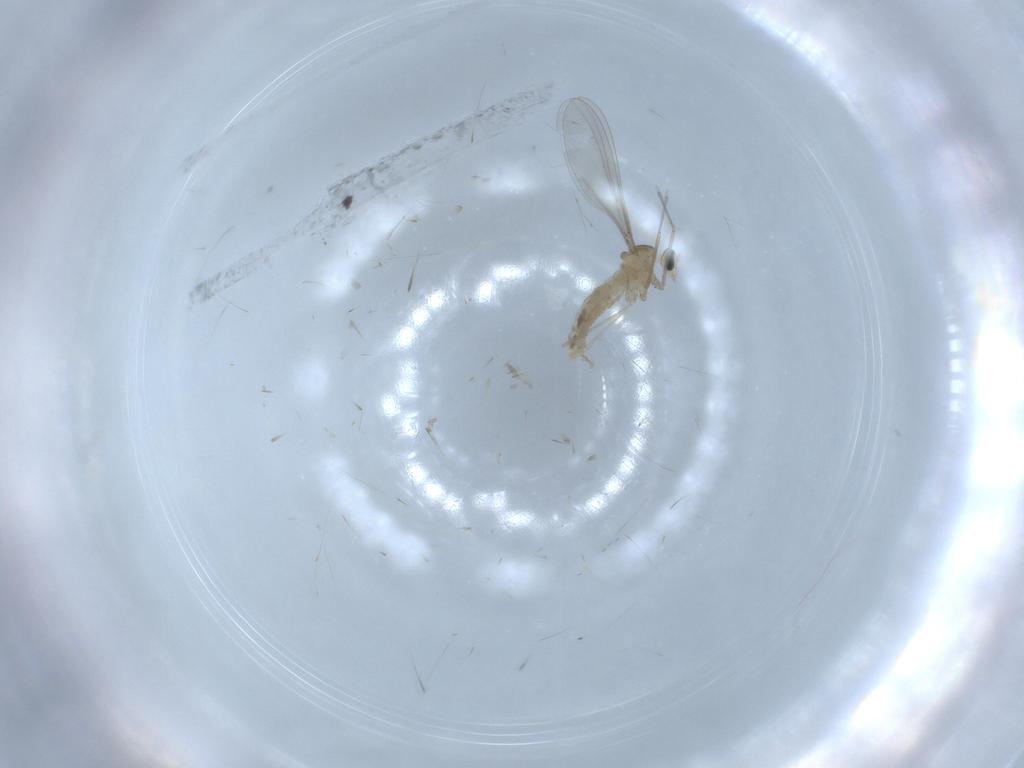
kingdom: Animalia
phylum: Arthropoda
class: Insecta
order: Diptera
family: Cecidomyiidae
